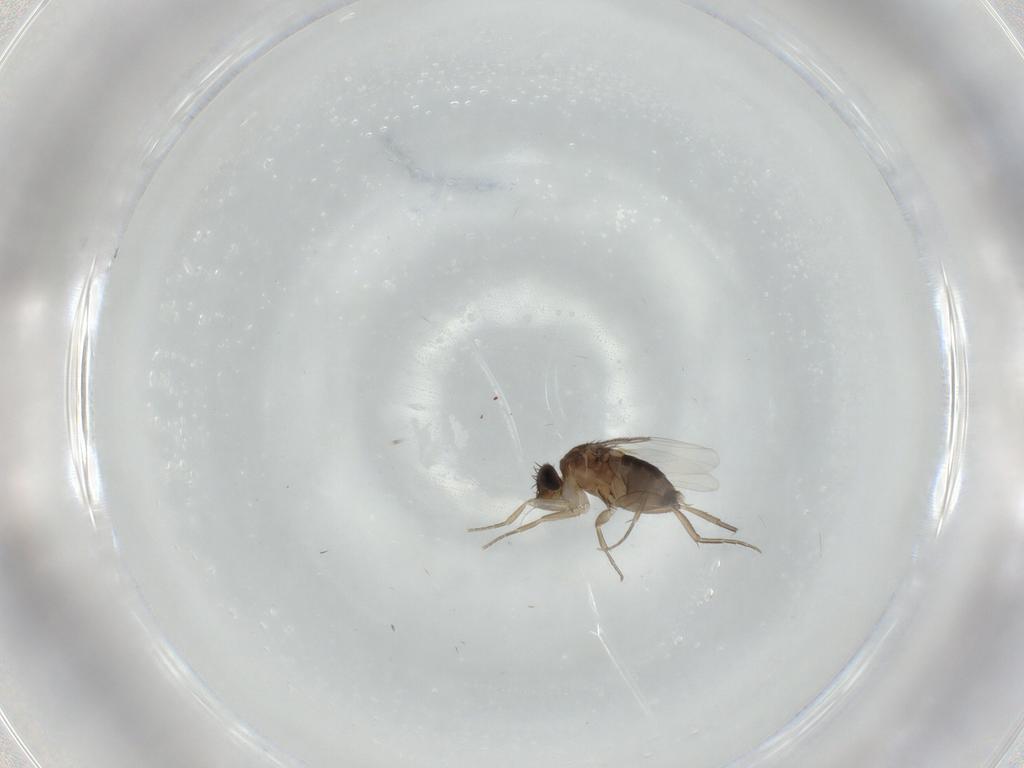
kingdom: Animalia
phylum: Arthropoda
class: Insecta
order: Diptera
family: Phoridae
